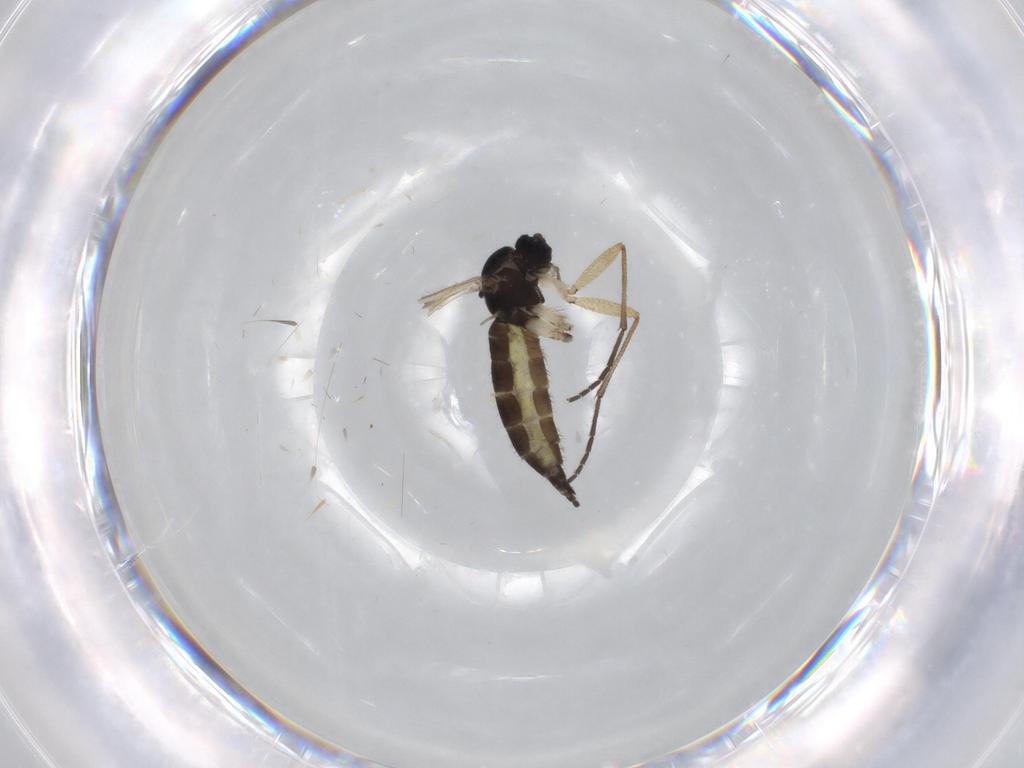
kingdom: Animalia
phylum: Arthropoda
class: Insecta
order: Diptera
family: Sciaridae
